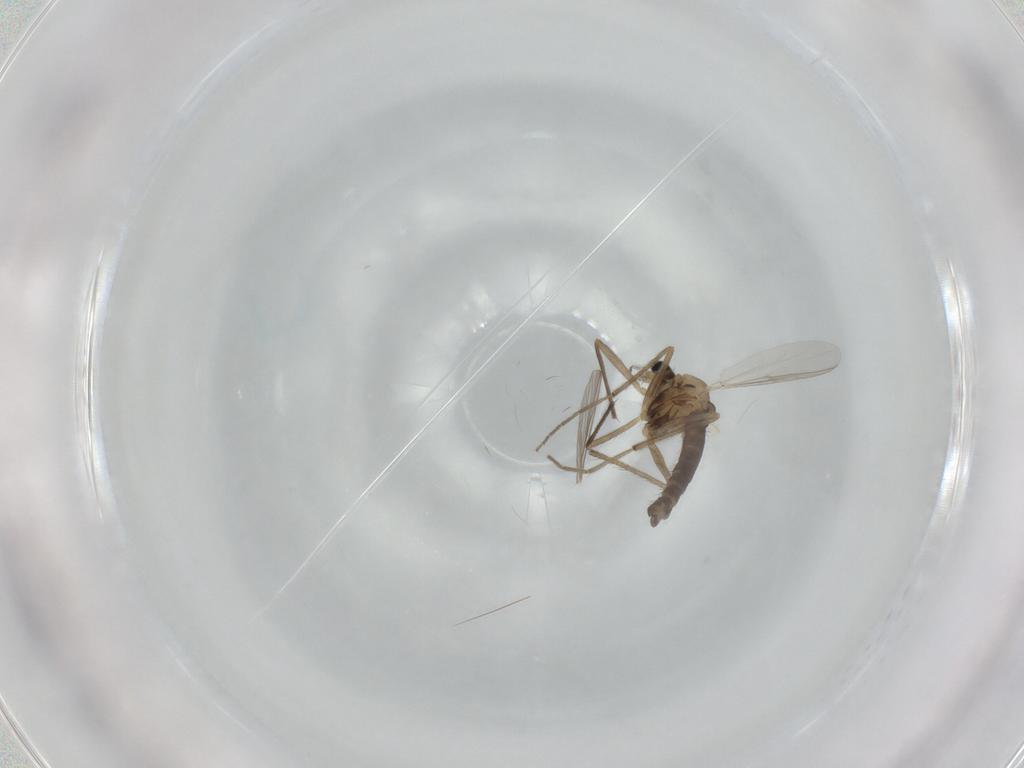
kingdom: Animalia
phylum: Arthropoda
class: Insecta
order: Diptera
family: Chironomidae
